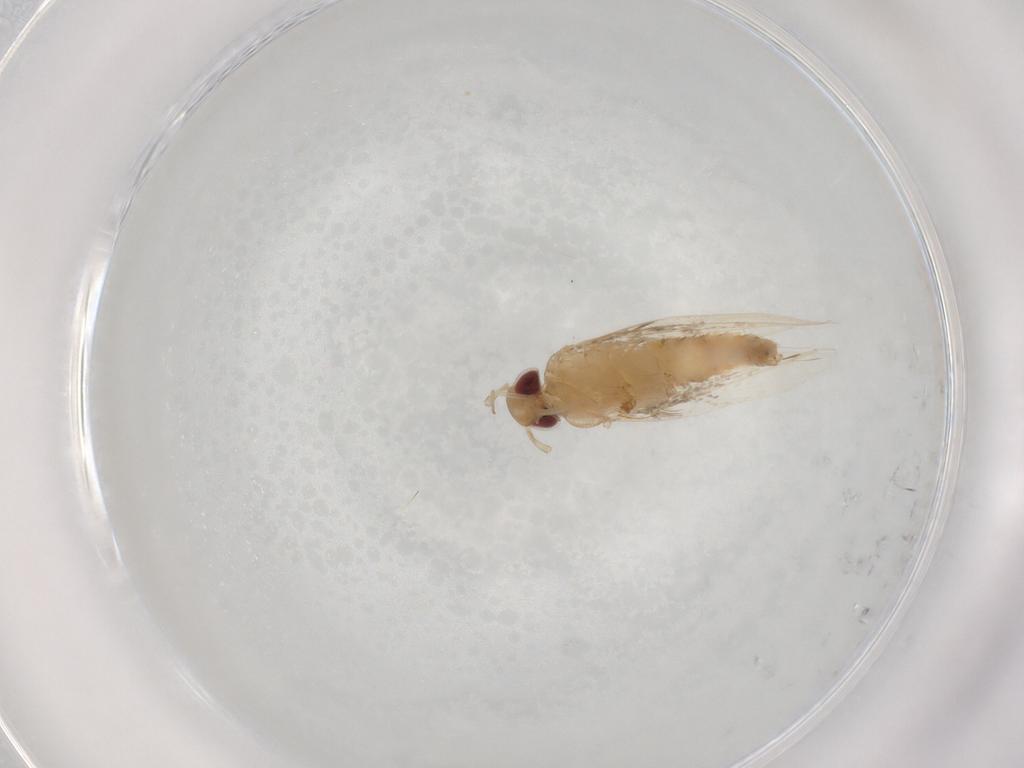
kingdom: Animalia
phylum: Arthropoda
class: Insecta
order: Lepidoptera
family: Cosmopterigidae
